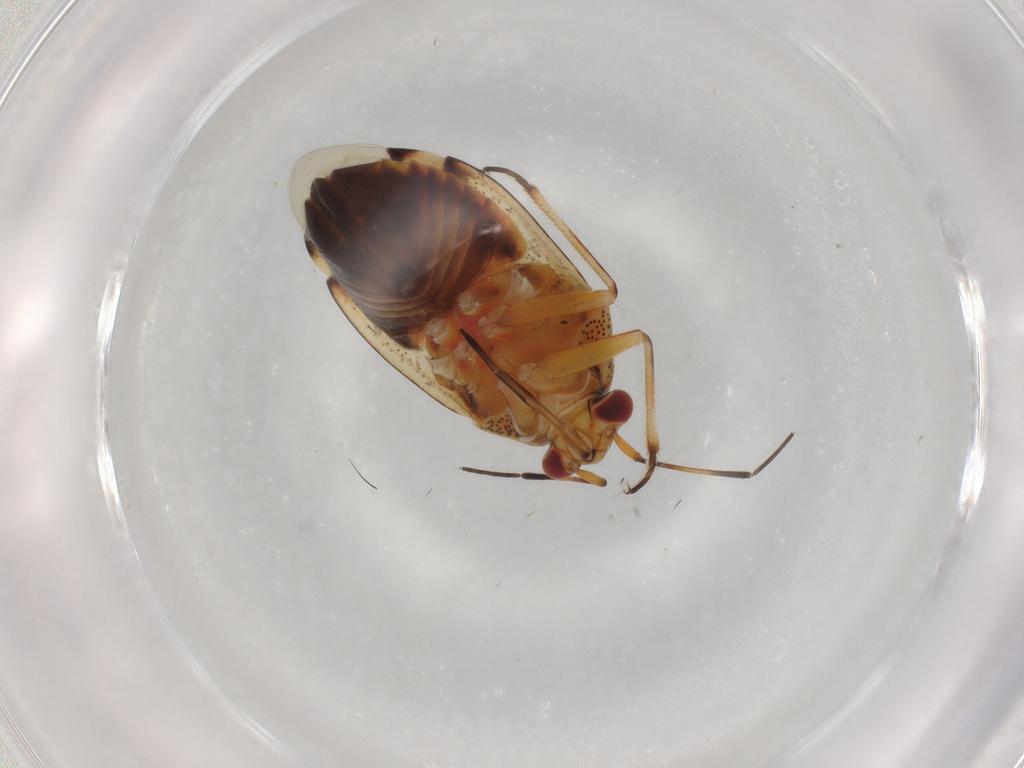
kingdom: Animalia
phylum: Arthropoda
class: Insecta
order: Hemiptera
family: Miridae
